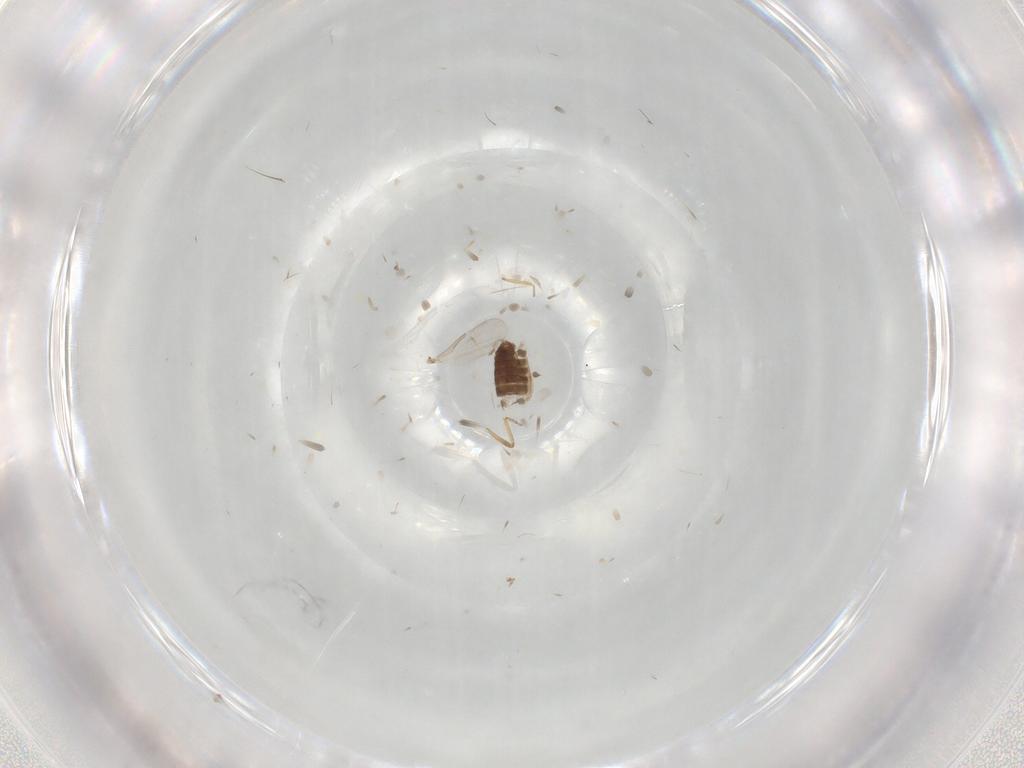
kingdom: Animalia
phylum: Arthropoda
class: Insecta
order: Diptera
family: Ceratopogonidae
